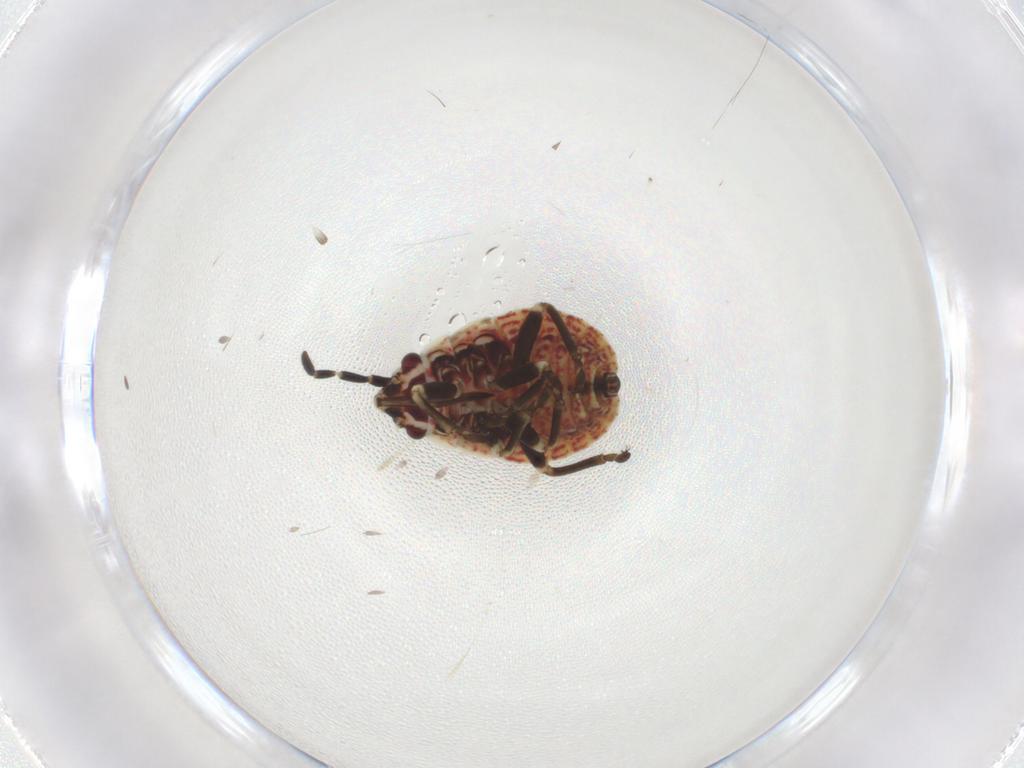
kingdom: Animalia
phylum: Arthropoda
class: Insecta
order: Hemiptera
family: Lygaeidae
